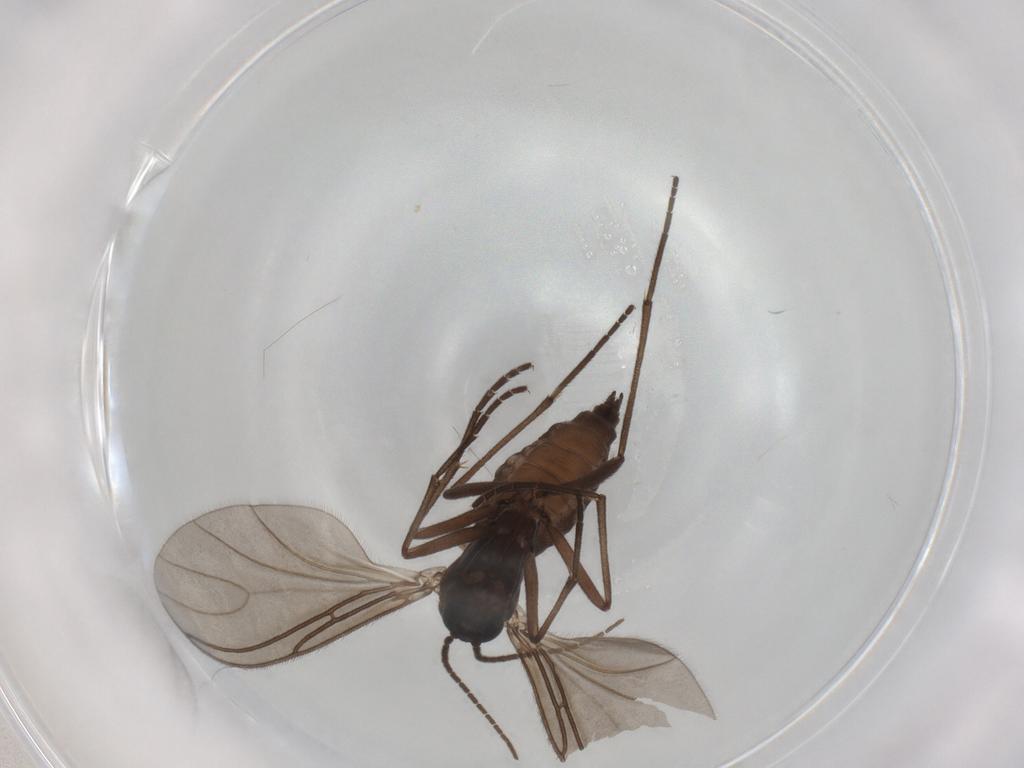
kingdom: Animalia
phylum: Arthropoda
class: Insecta
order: Diptera
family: Sciaridae
